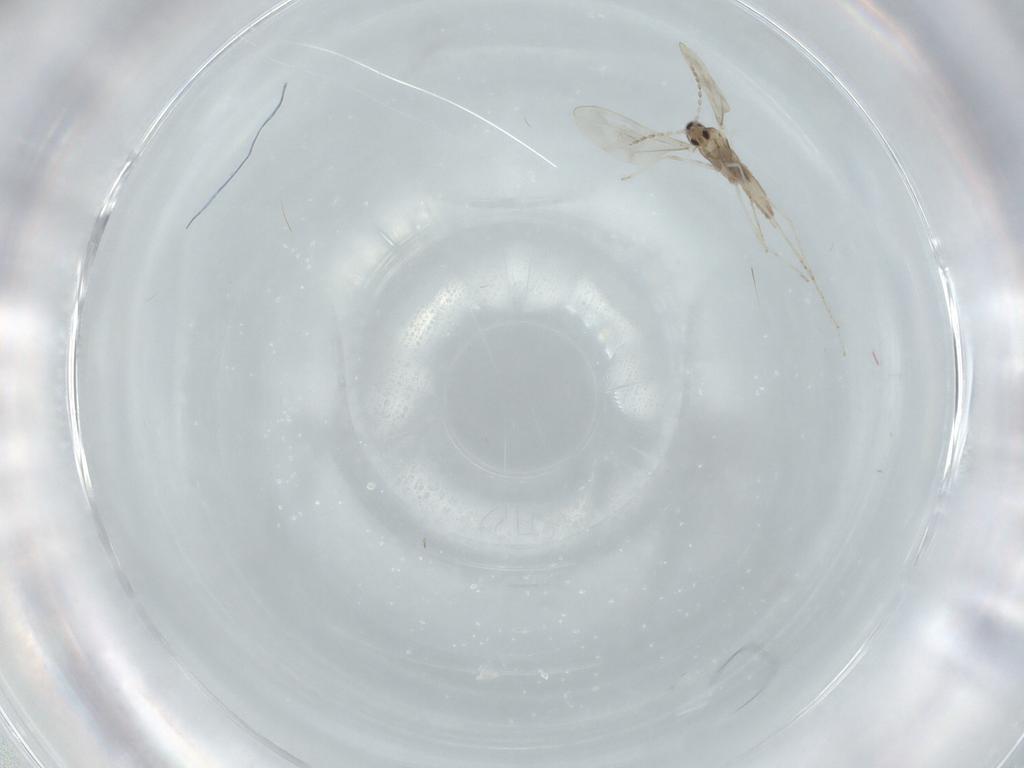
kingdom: Animalia
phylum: Arthropoda
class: Insecta
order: Diptera
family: Cecidomyiidae
